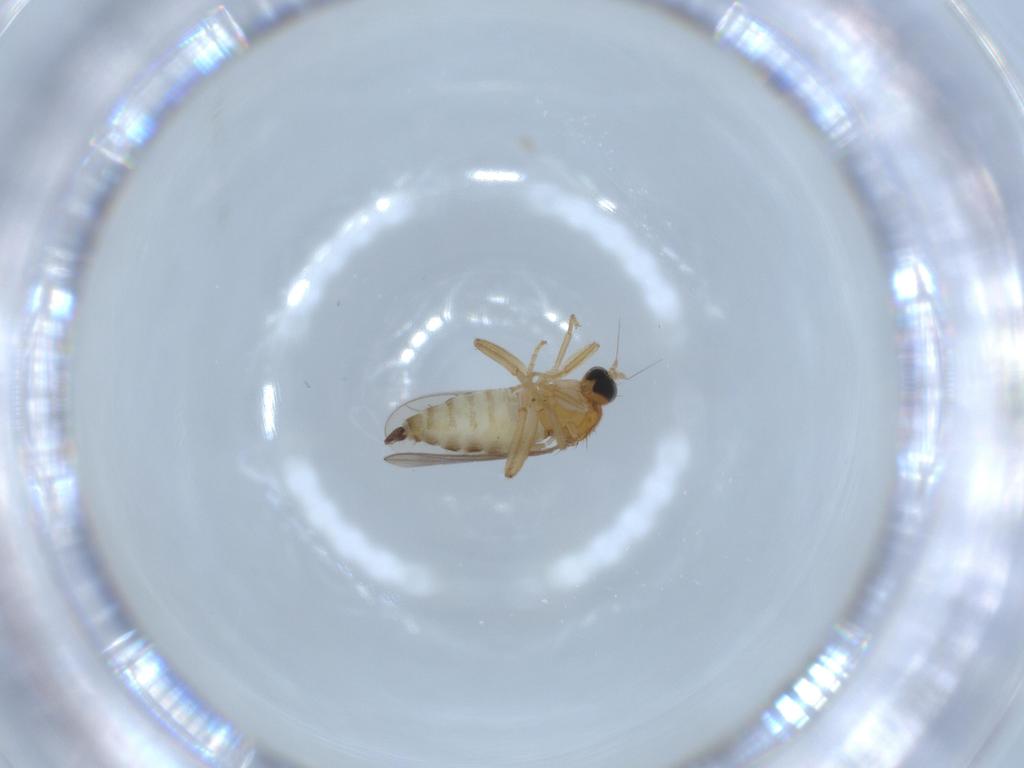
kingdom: Animalia
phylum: Arthropoda
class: Insecta
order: Diptera
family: Hybotidae
